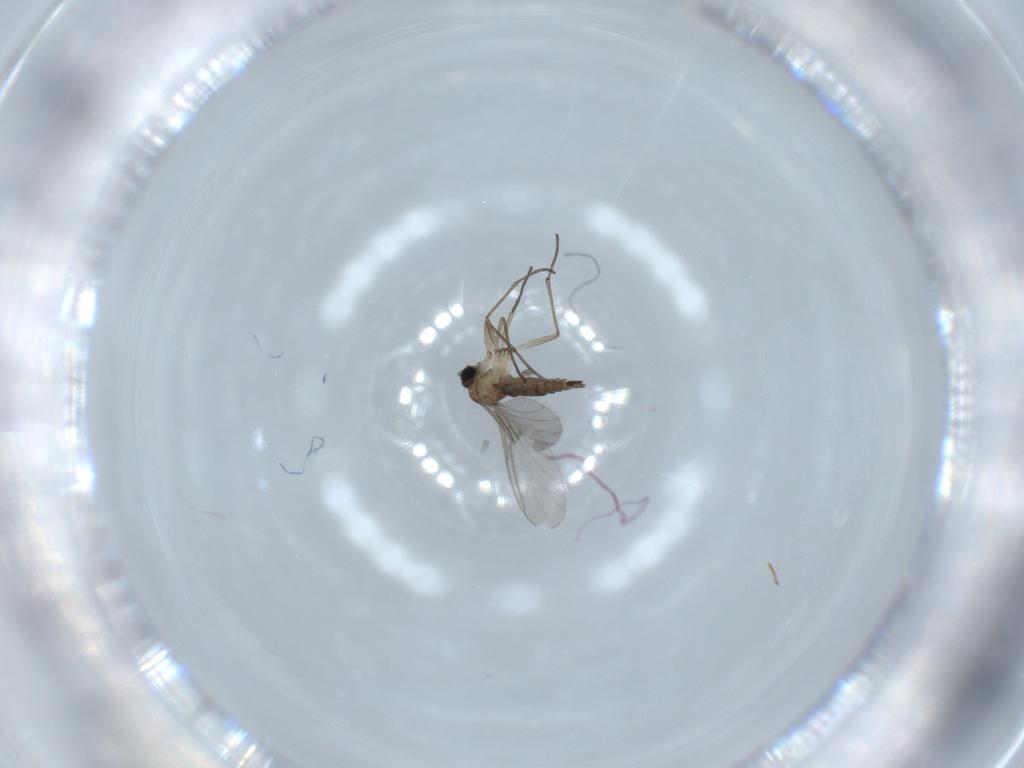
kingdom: Animalia
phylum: Arthropoda
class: Insecta
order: Diptera
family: Sciaridae
